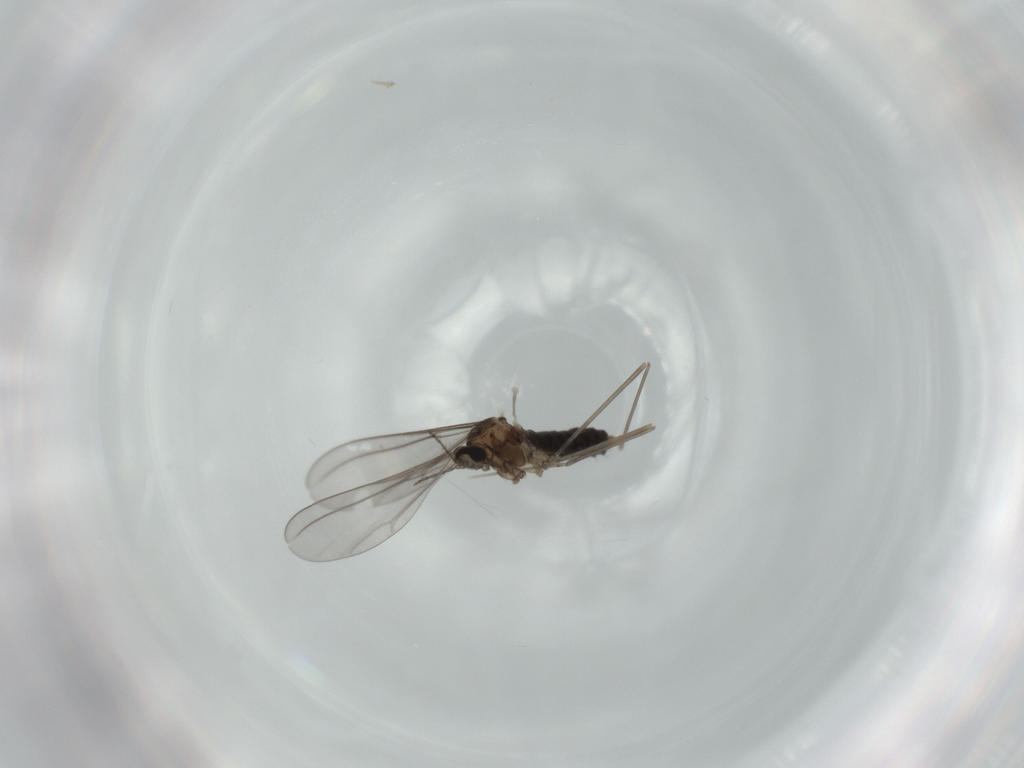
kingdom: Animalia
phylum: Arthropoda
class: Insecta
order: Diptera
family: Cecidomyiidae
